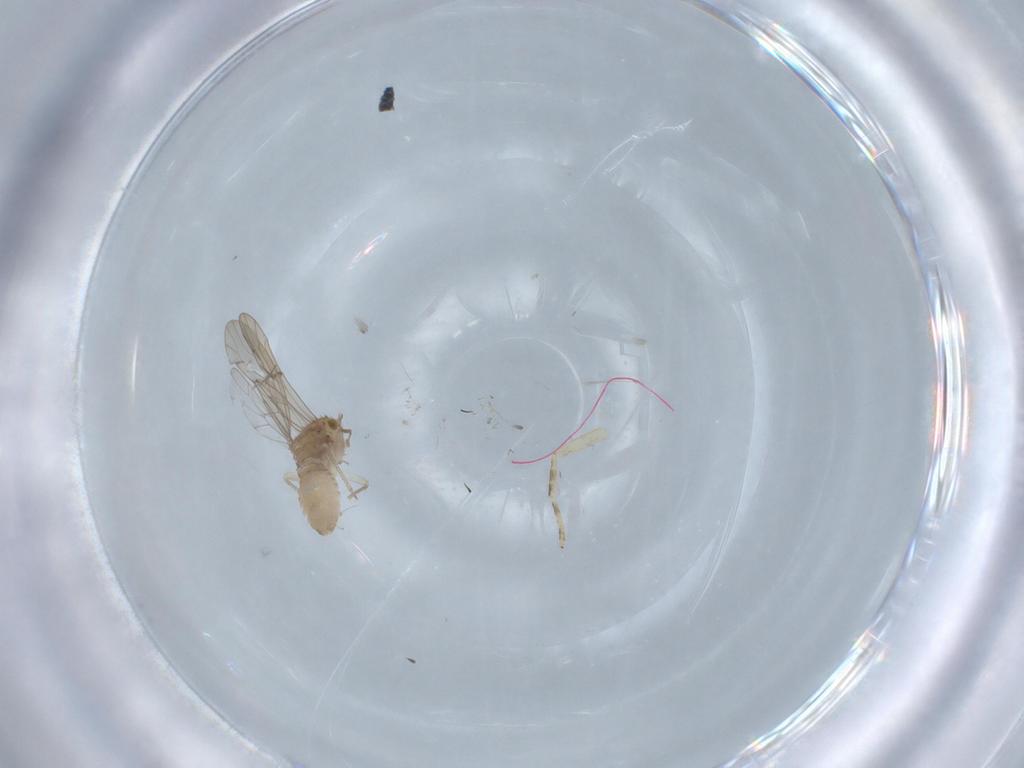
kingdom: Animalia
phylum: Arthropoda
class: Insecta
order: Psocodea
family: Ectopsocidae
